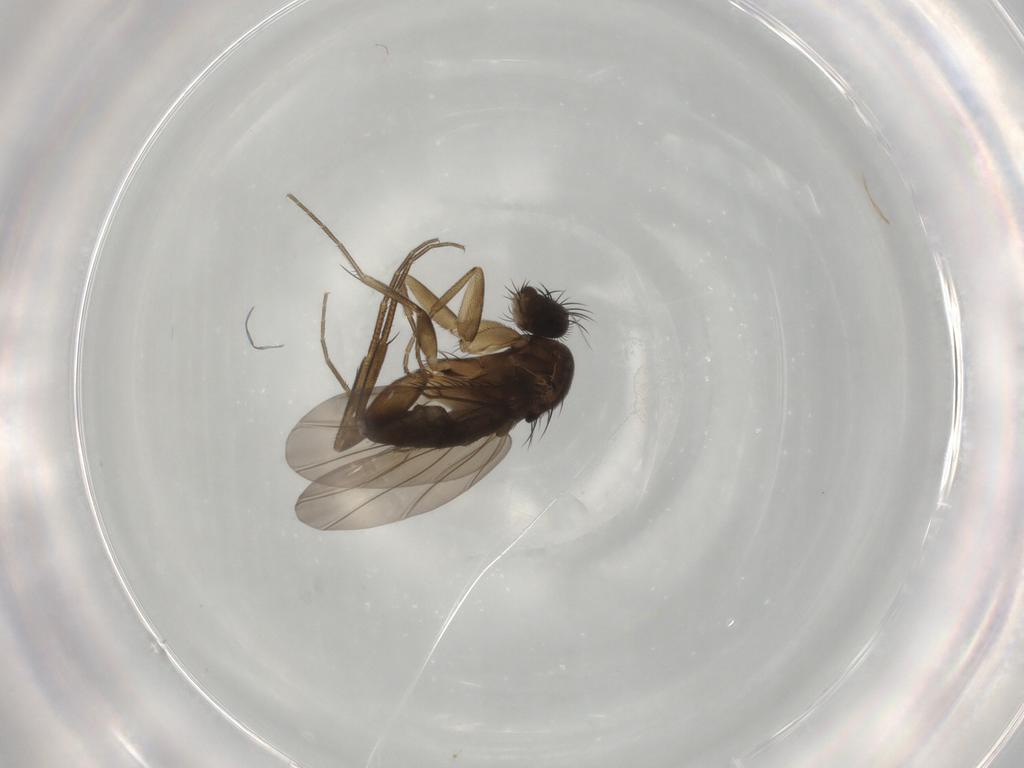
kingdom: Animalia
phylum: Arthropoda
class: Insecta
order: Diptera
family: Phoridae
